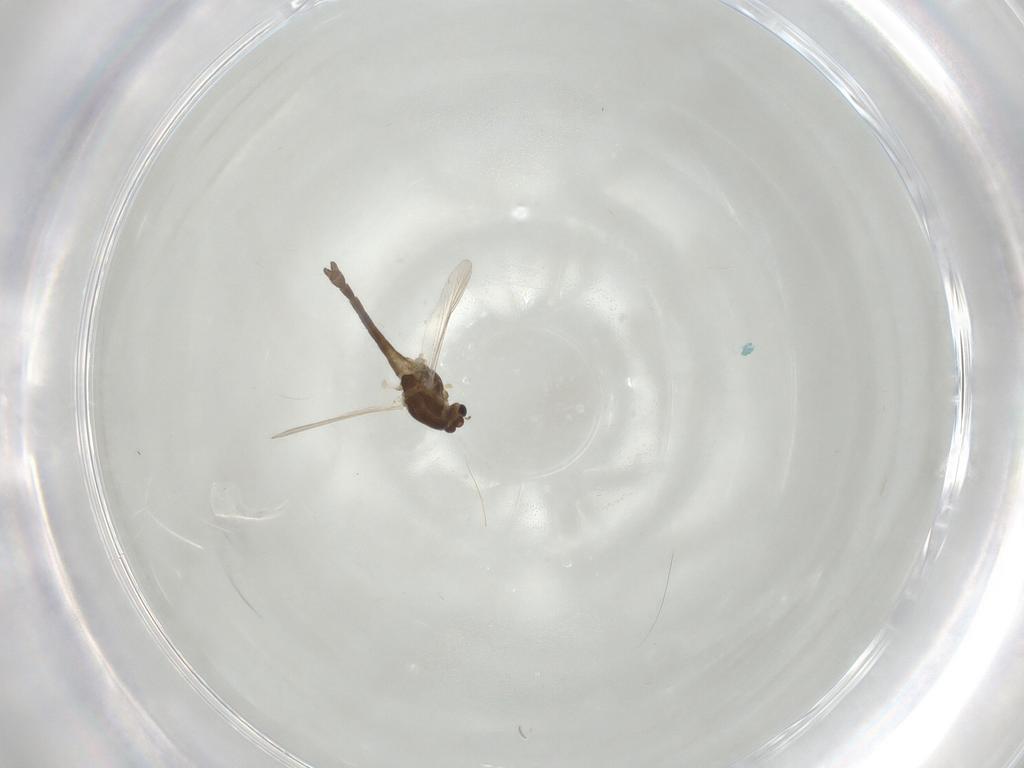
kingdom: Animalia
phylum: Arthropoda
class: Insecta
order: Diptera
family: Chironomidae
